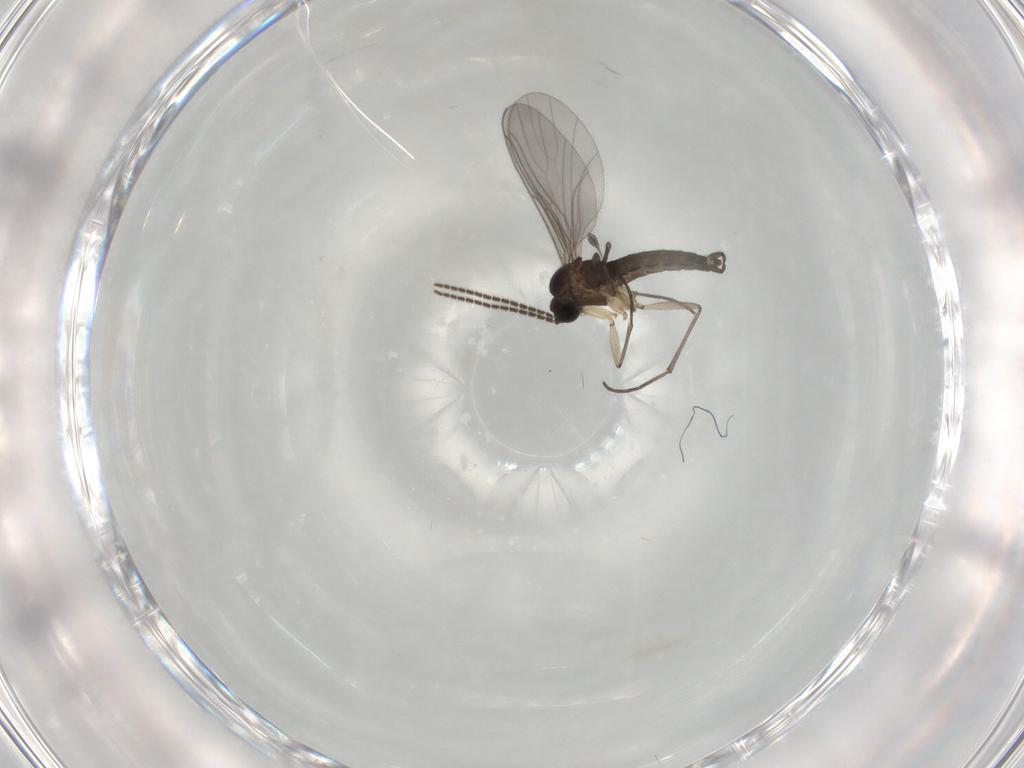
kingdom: Animalia
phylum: Arthropoda
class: Insecta
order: Diptera
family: Sciaridae
